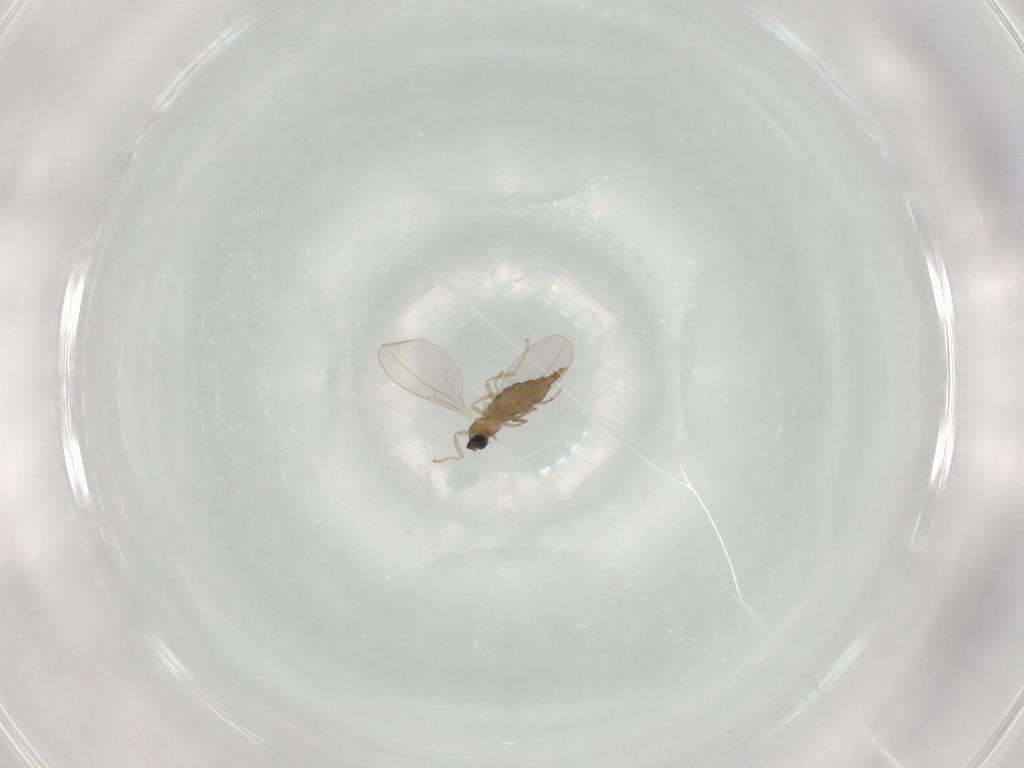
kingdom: Animalia
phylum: Arthropoda
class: Insecta
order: Diptera
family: Cecidomyiidae
